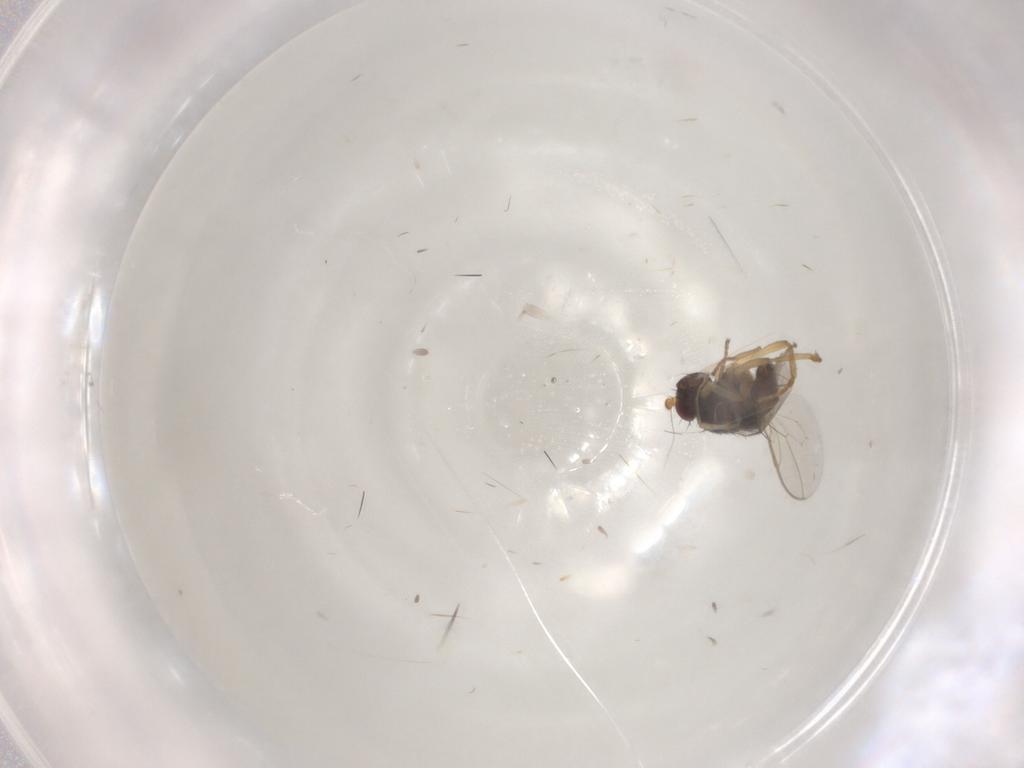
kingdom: Animalia
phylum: Arthropoda
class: Insecta
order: Diptera
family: Sphaeroceridae
